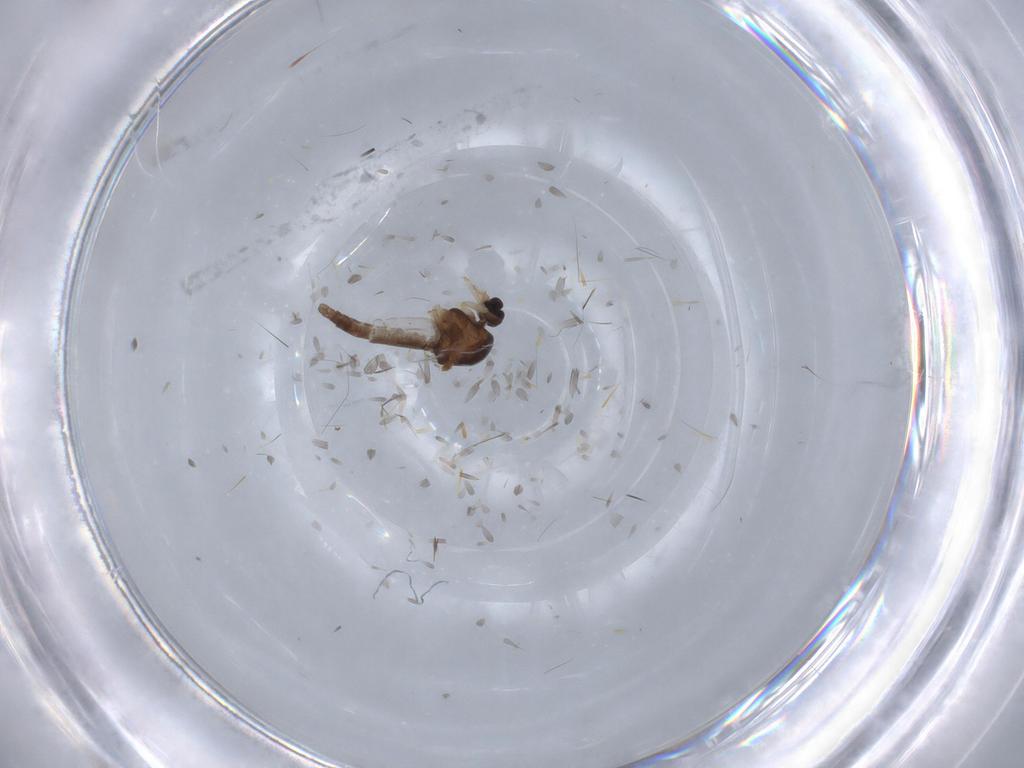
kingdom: Animalia
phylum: Arthropoda
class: Insecta
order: Diptera
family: Ceratopogonidae
